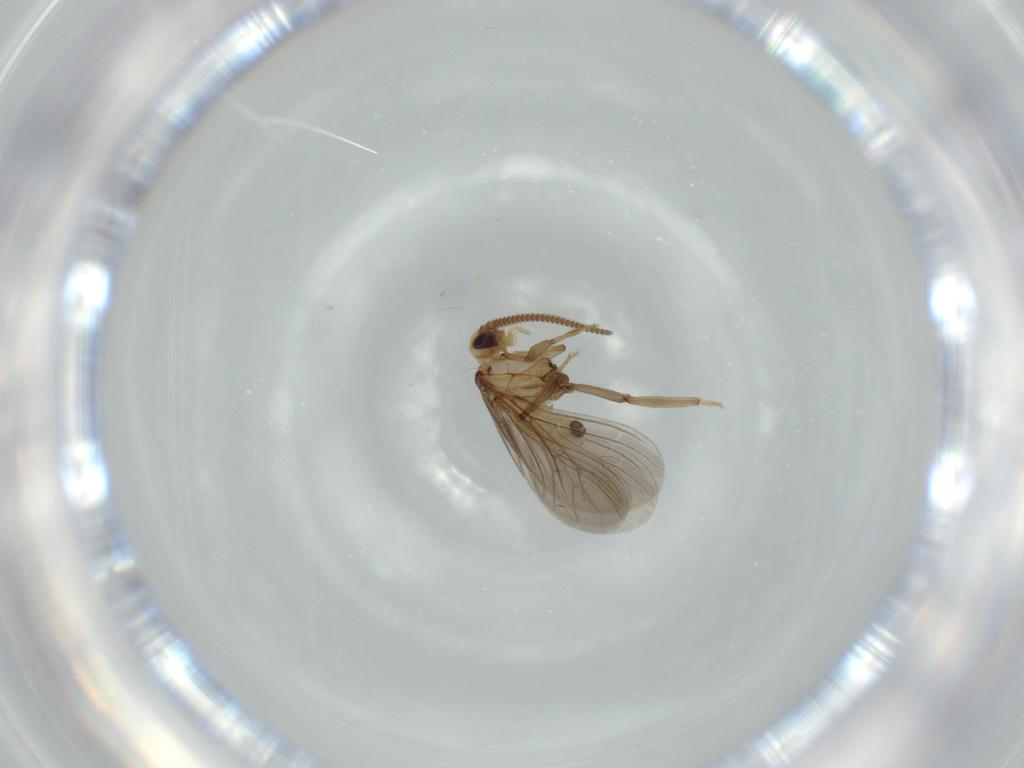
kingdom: Animalia
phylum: Arthropoda
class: Insecta
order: Neuroptera
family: Coniopterygidae
